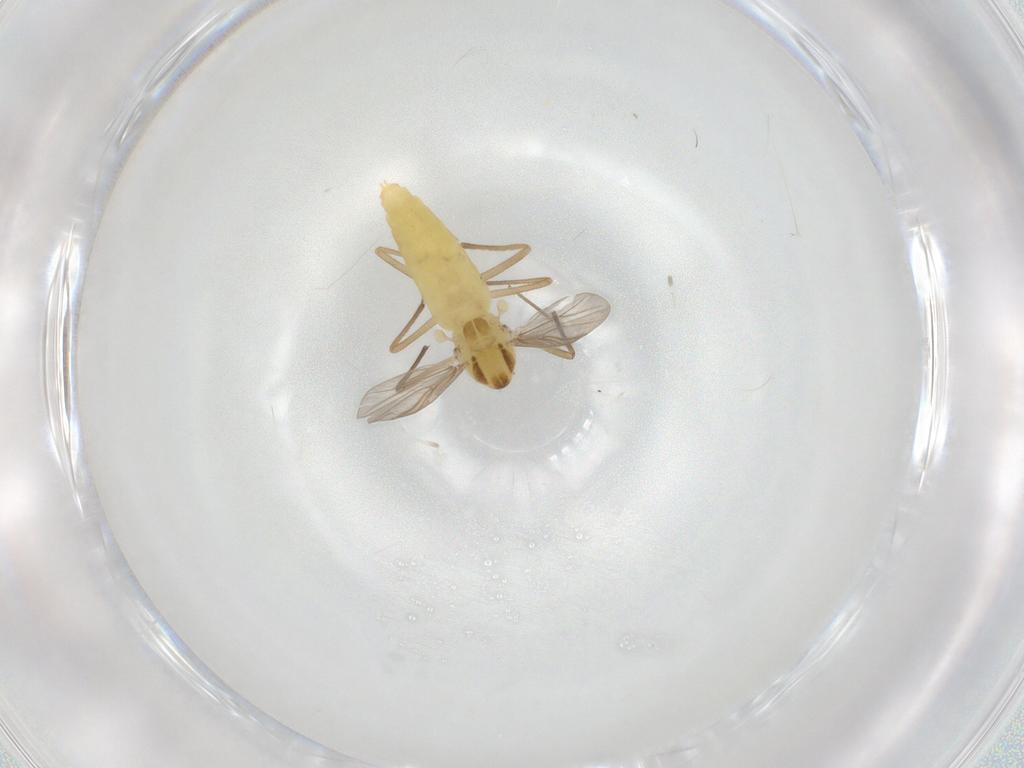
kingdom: Animalia
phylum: Arthropoda
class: Insecta
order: Diptera
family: Chironomidae
